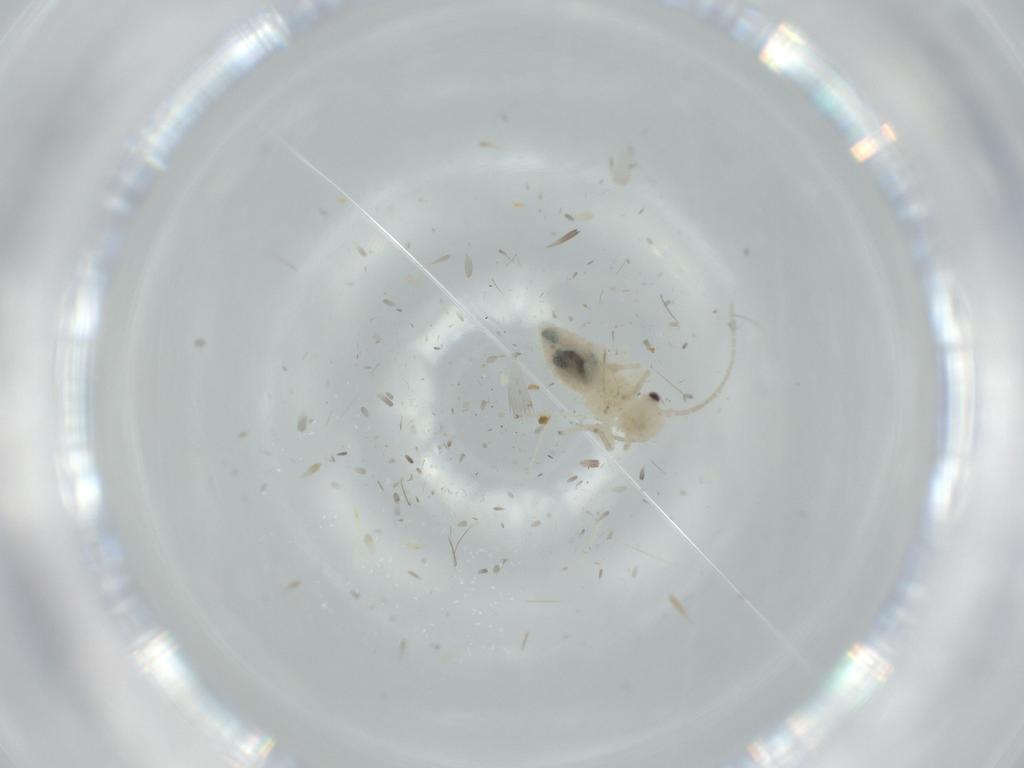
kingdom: Animalia
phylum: Arthropoda
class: Insecta
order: Psocodea
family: Caeciliusidae
